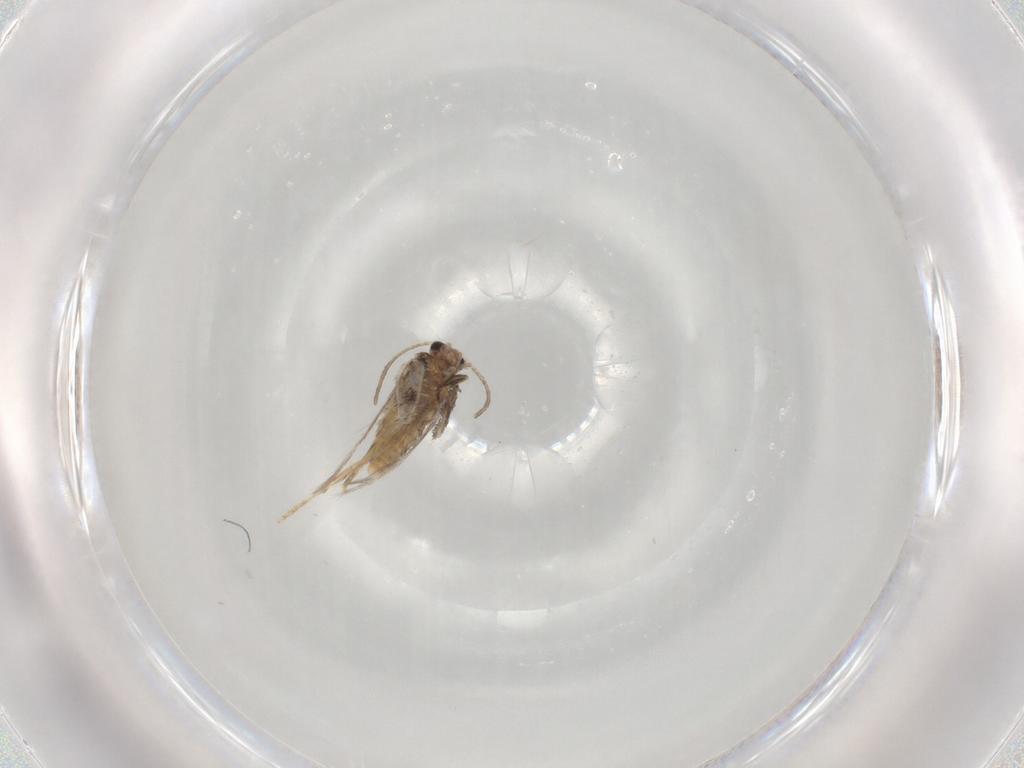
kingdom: Animalia
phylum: Arthropoda
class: Insecta
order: Lepidoptera
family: Nepticulidae
